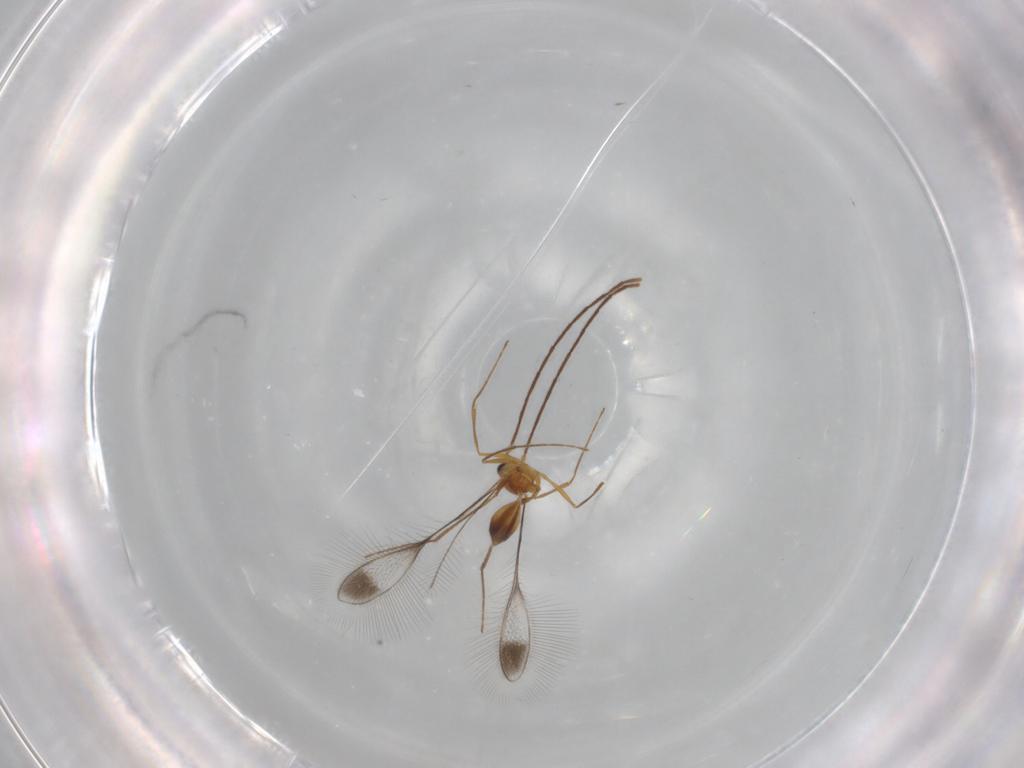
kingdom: Animalia
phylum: Arthropoda
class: Insecta
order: Hymenoptera
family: Mymaridae
